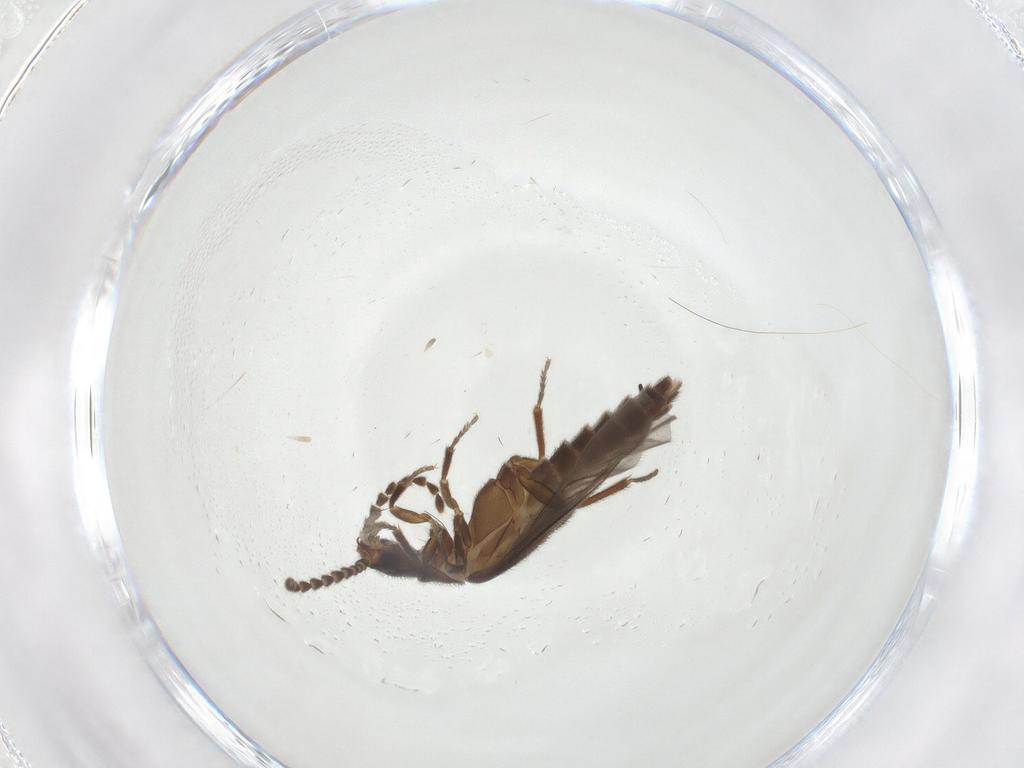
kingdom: Animalia
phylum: Arthropoda
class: Insecta
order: Coleoptera
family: Omethidae
